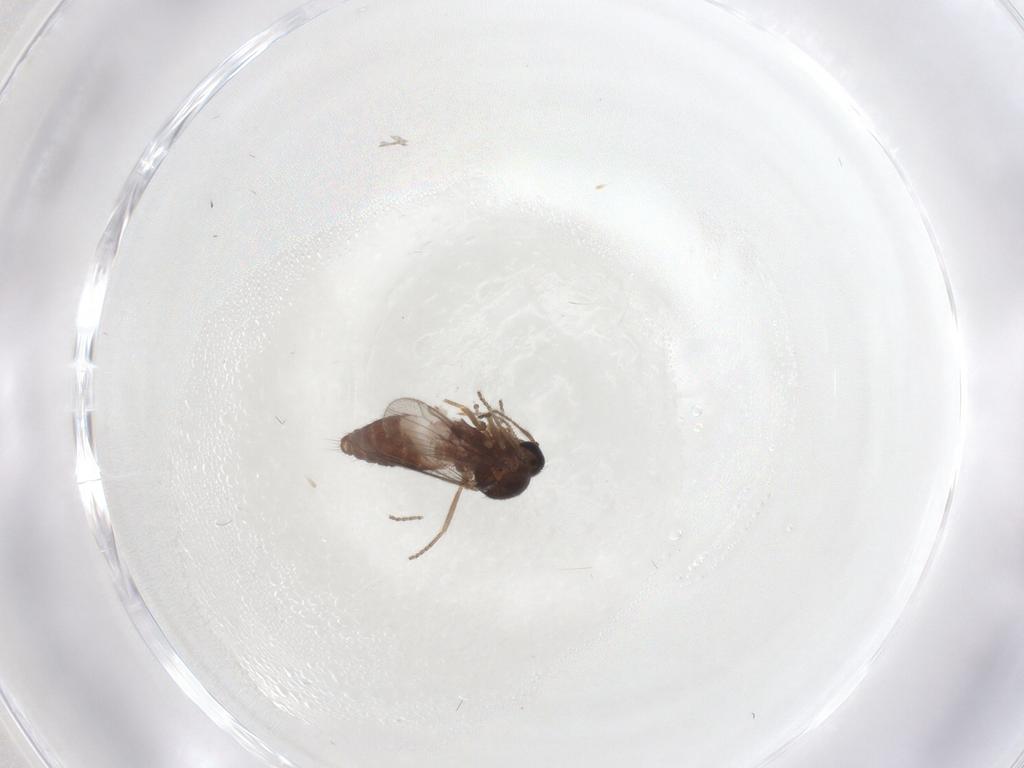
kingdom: Animalia
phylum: Arthropoda
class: Insecta
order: Diptera
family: Ceratopogonidae
